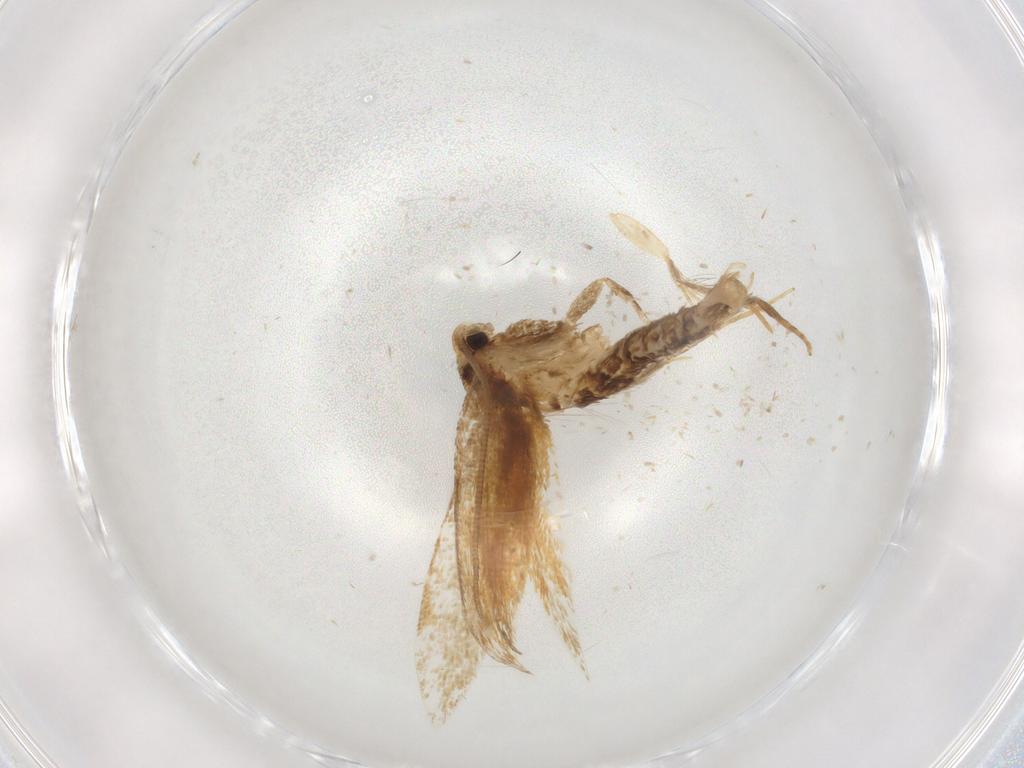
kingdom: Animalia
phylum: Arthropoda
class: Insecta
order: Lepidoptera
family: Tineidae
